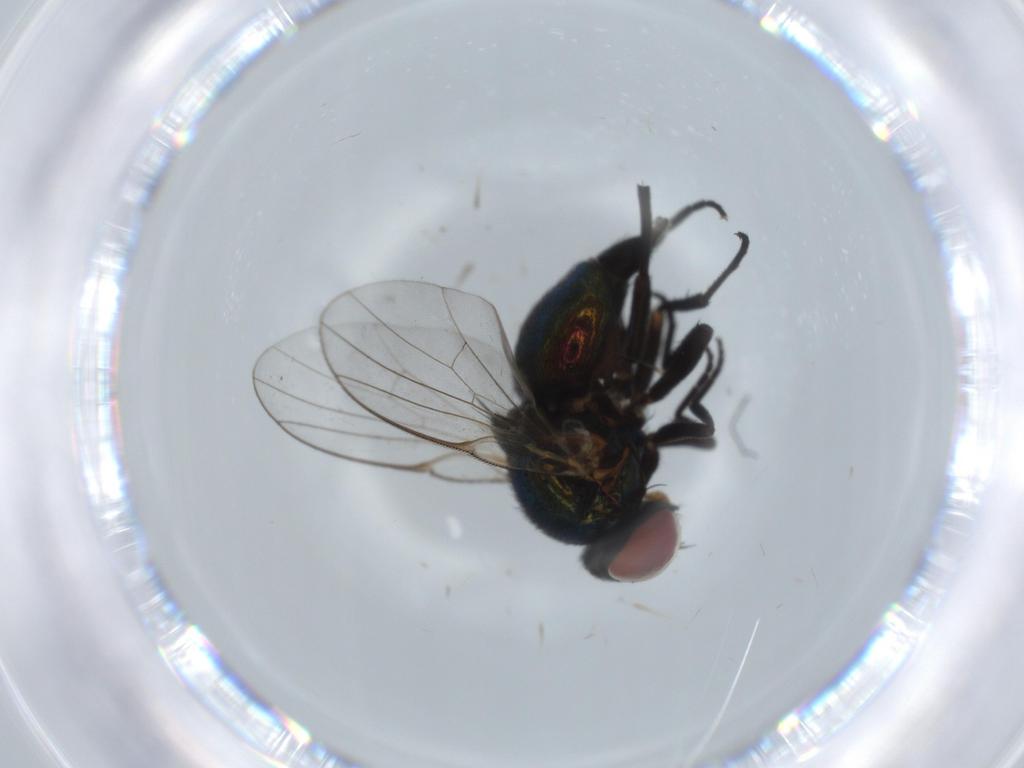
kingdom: Animalia
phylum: Arthropoda
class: Insecta
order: Diptera
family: Agromyzidae
